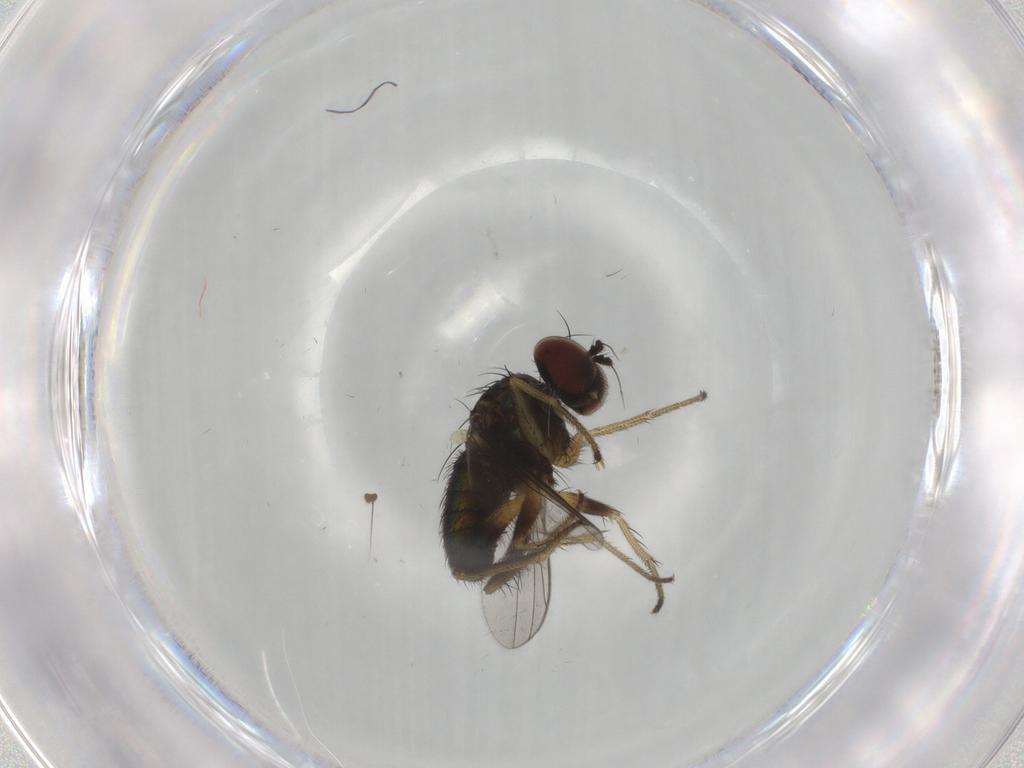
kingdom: Animalia
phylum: Arthropoda
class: Insecta
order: Diptera
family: Dolichopodidae
